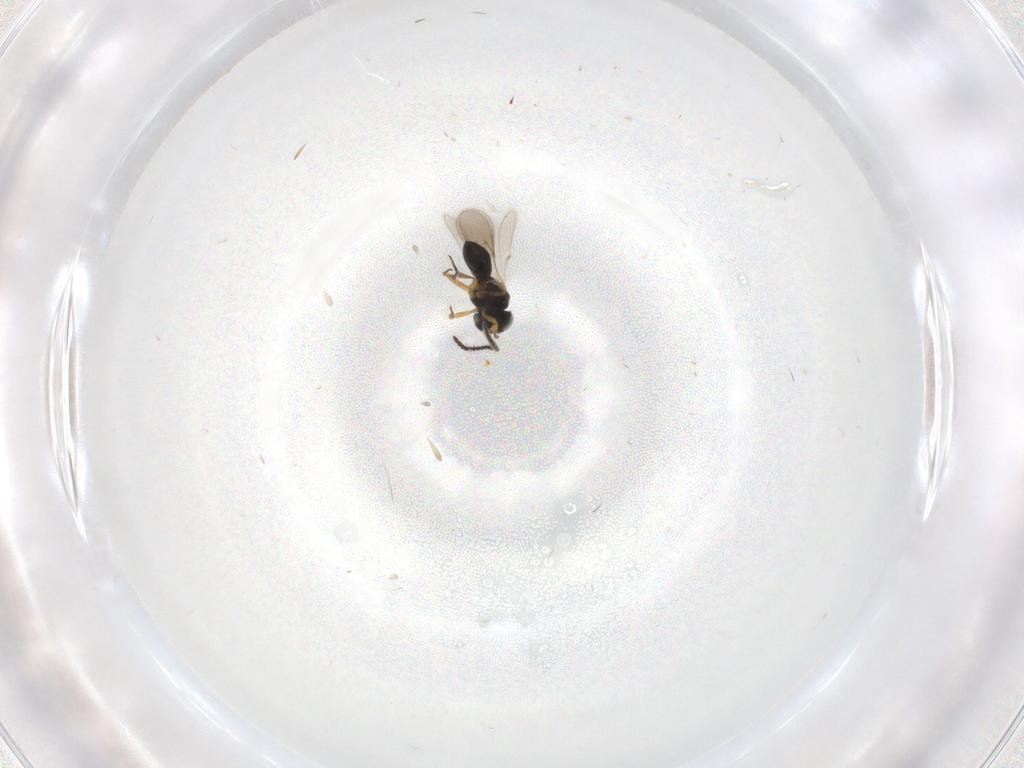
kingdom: Animalia
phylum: Arthropoda
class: Insecta
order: Hymenoptera
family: Scelionidae
